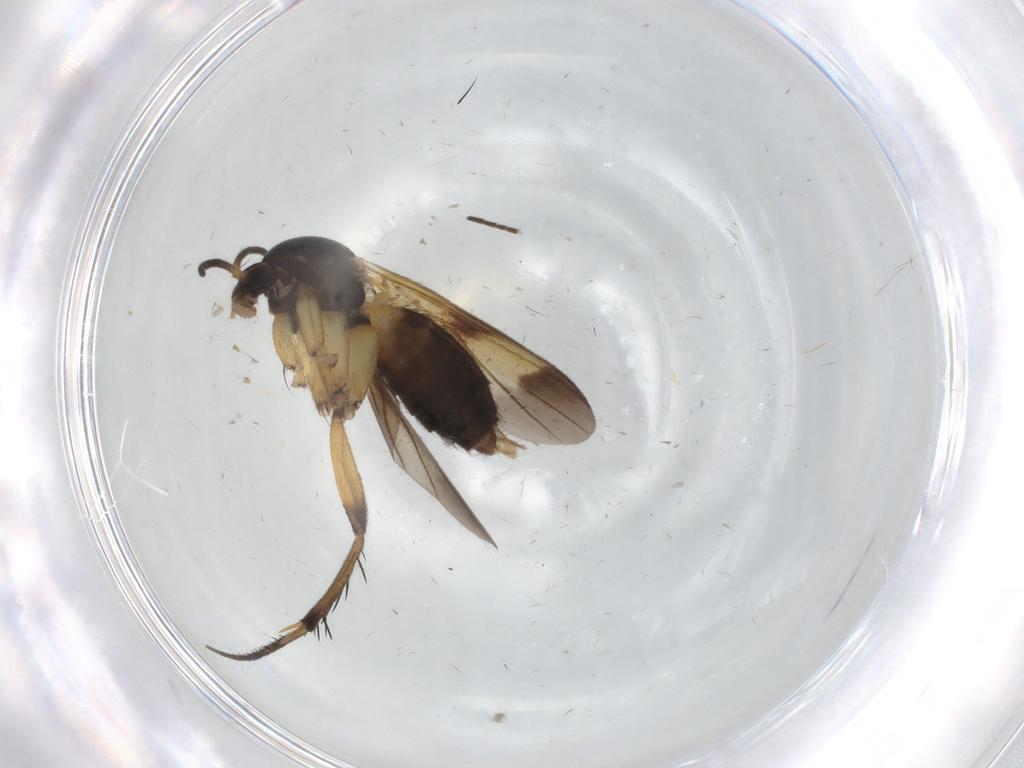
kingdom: Animalia
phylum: Arthropoda
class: Insecta
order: Diptera
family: Mycetophilidae
